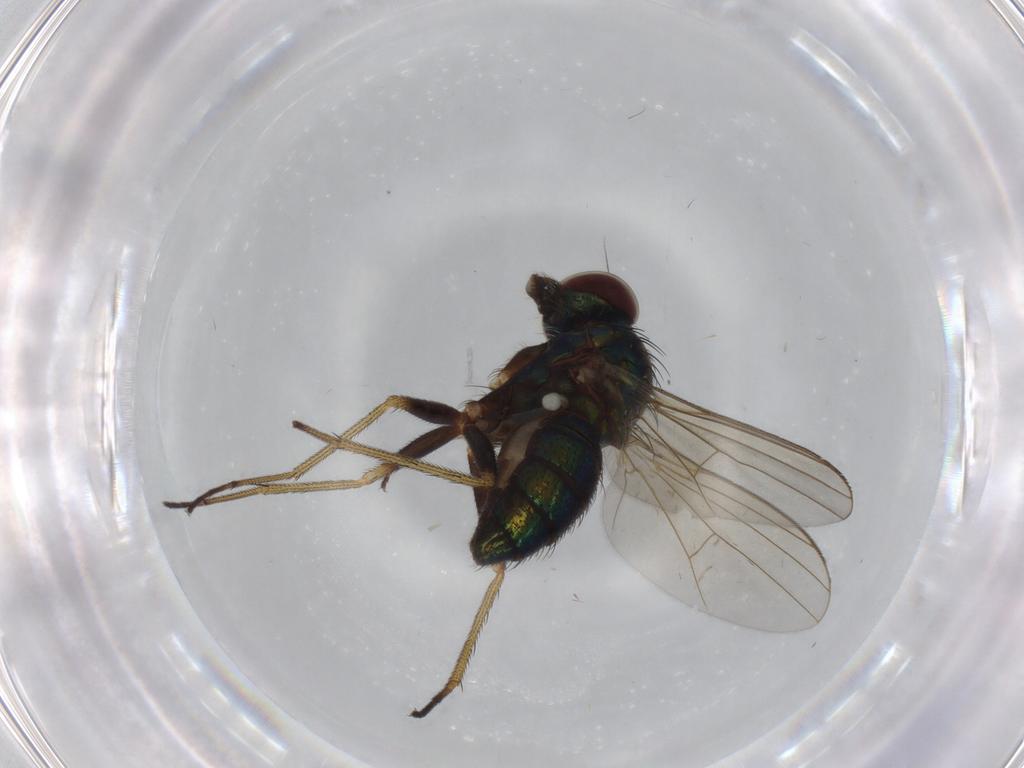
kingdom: Animalia
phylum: Arthropoda
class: Insecta
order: Diptera
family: Dolichopodidae
